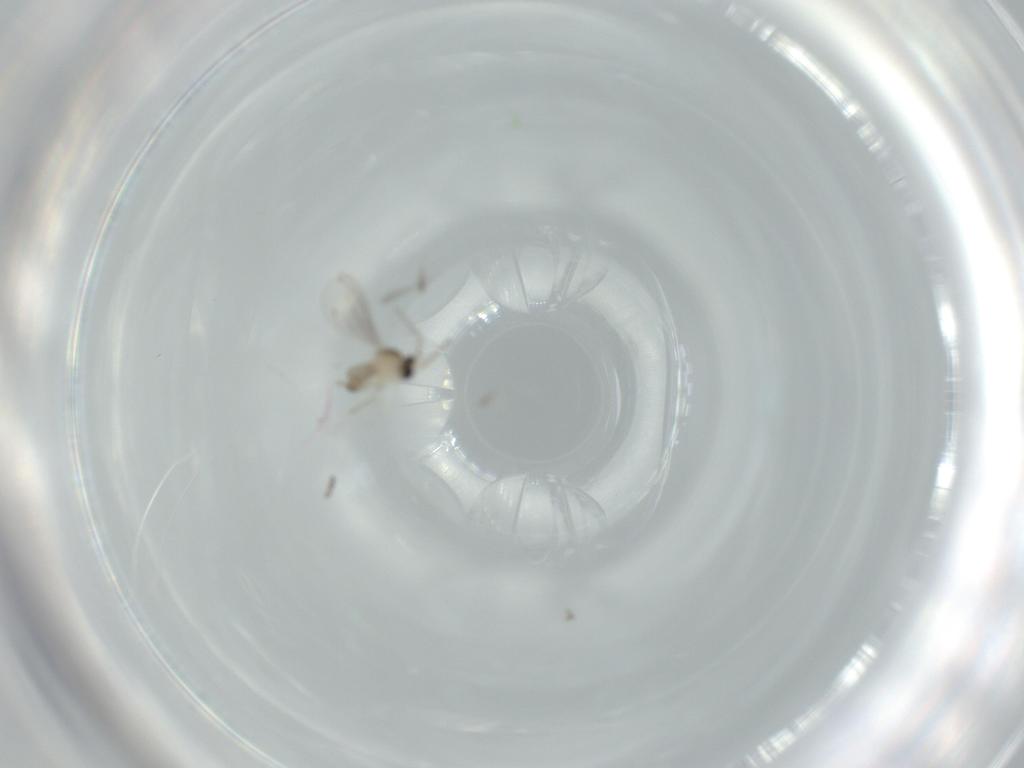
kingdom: Animalia
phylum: Arthropoda
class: Insecta
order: Diptera
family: Cecidomyiidae
